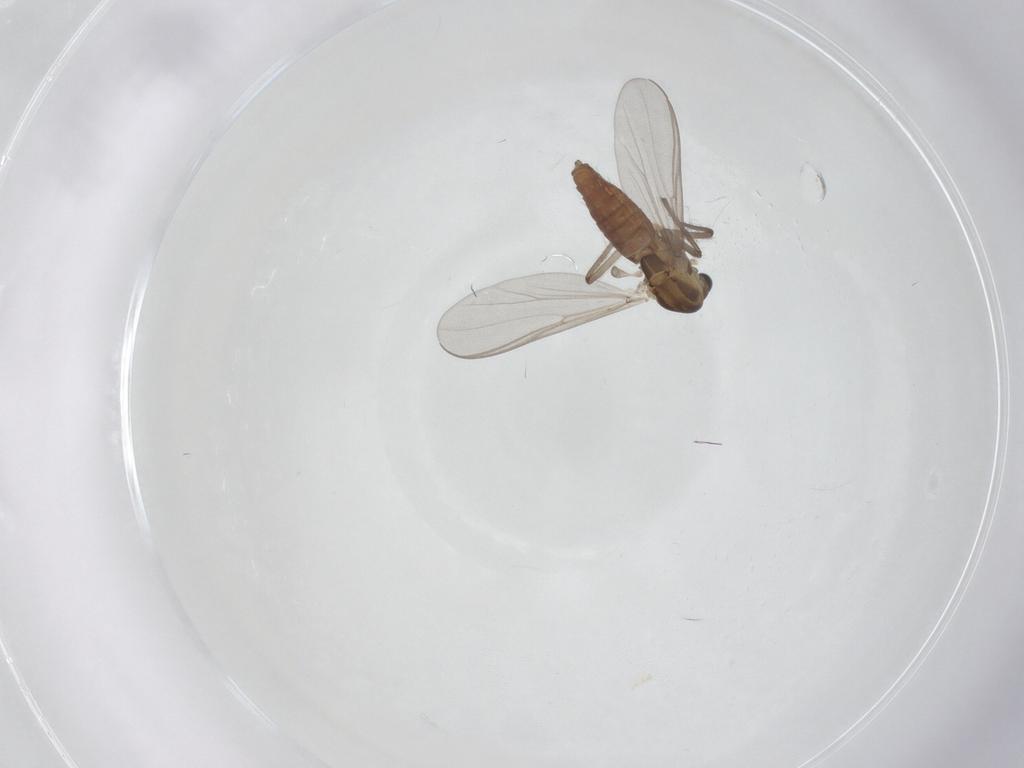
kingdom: Animalia
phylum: Arthropoda
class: Insecta
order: Diptera
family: Chironomidae
